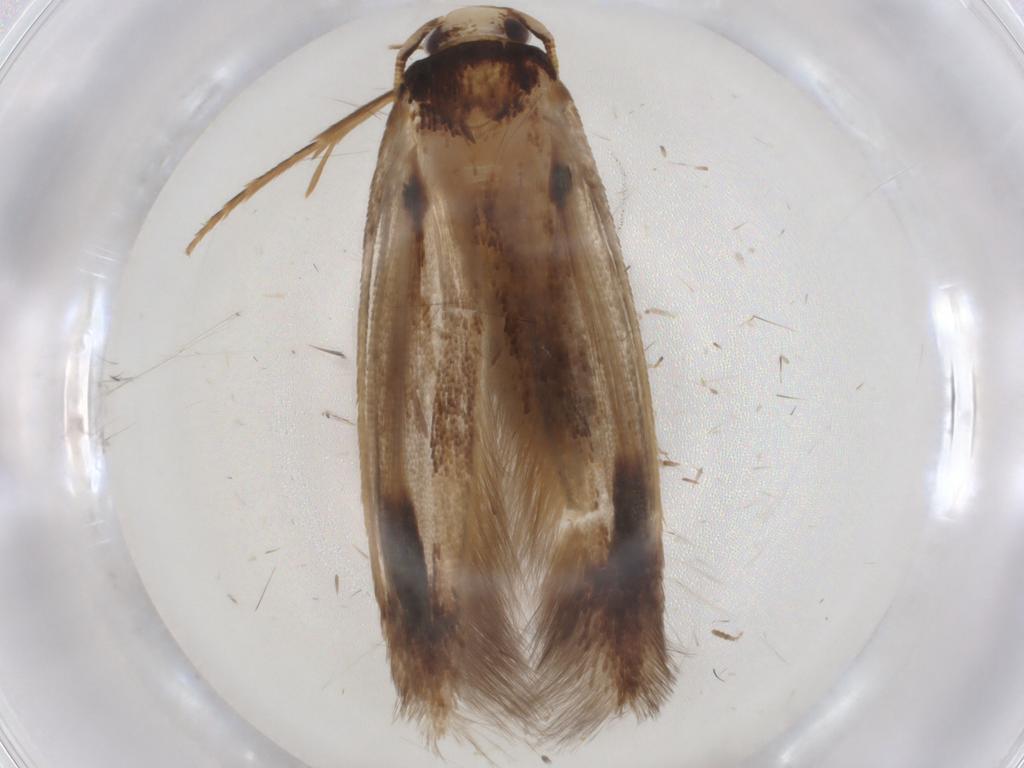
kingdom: Animalia
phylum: Arthropoda
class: Insecta
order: Lepidoptera
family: Tineidae
